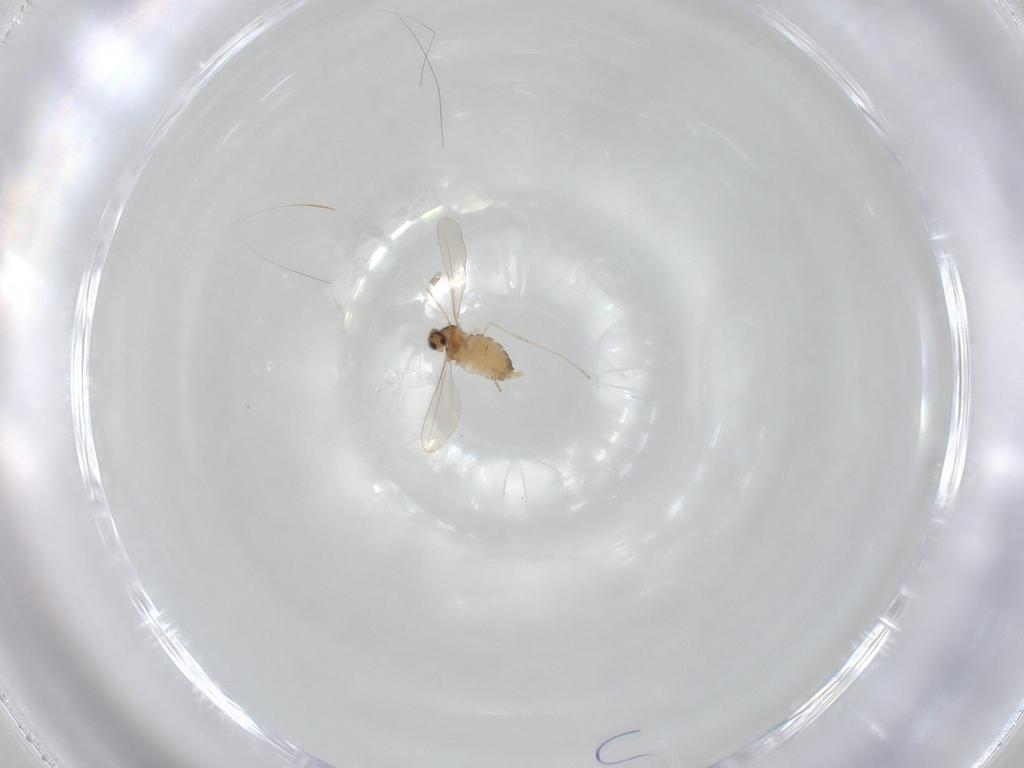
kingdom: Animalia
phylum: Arthropoda
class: Insecta
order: Diptera
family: Cecidomyiidae
